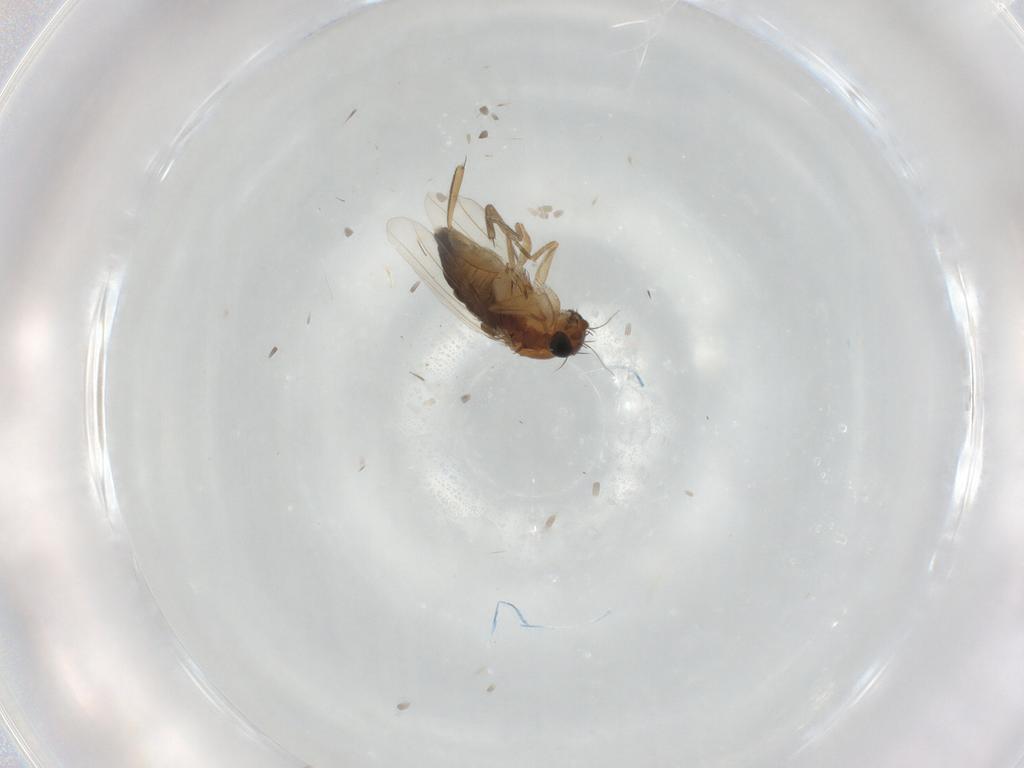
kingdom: Animalia
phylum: Arthropoda
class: Insecta
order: Diptera
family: Phoridae
